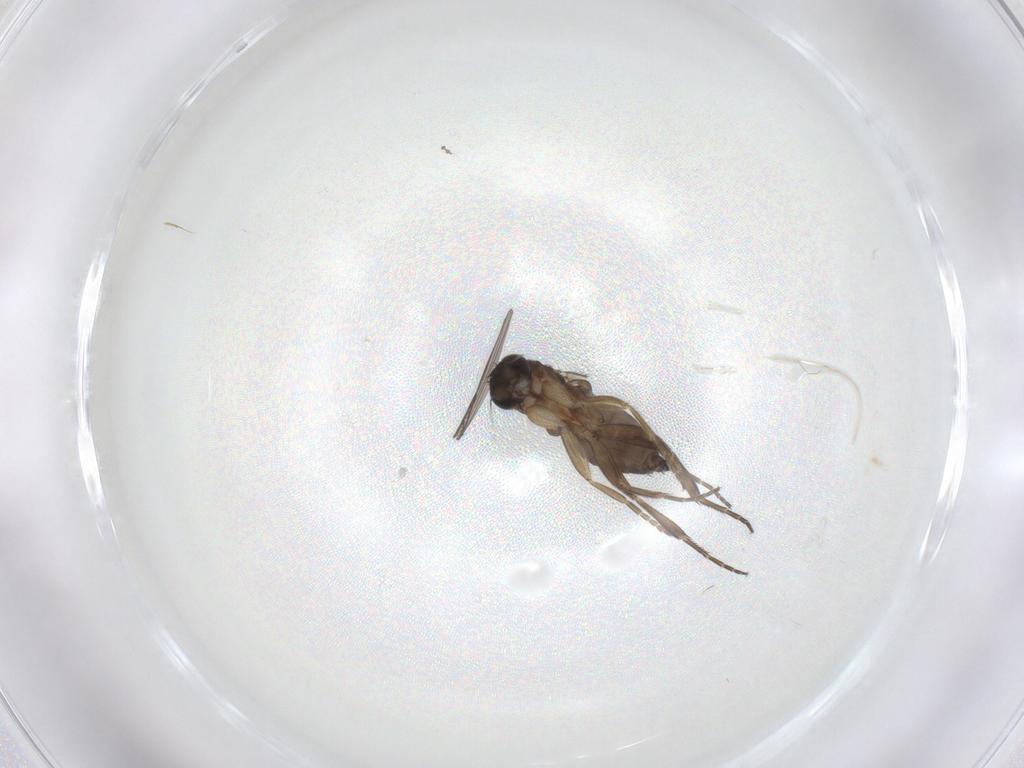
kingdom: Animalia
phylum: Arthropoda
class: Insecta
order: Diptera
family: Phoridae
